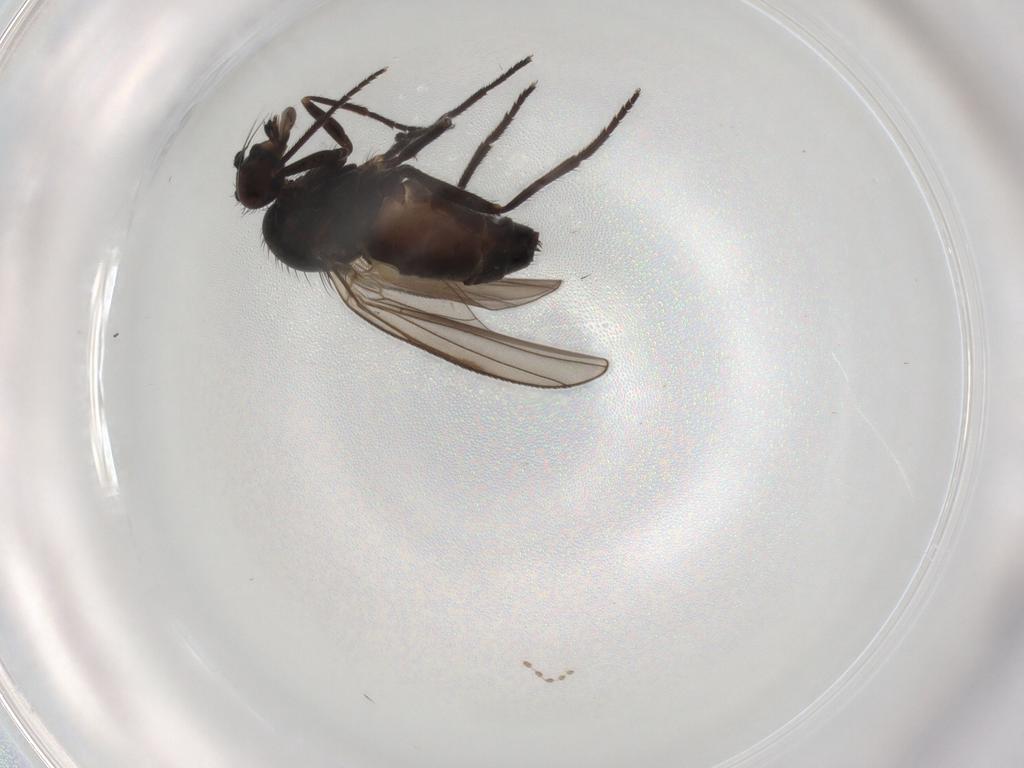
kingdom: Animalia
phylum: Arthropoda
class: Insecta
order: Diptera
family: Dolichopodidae
